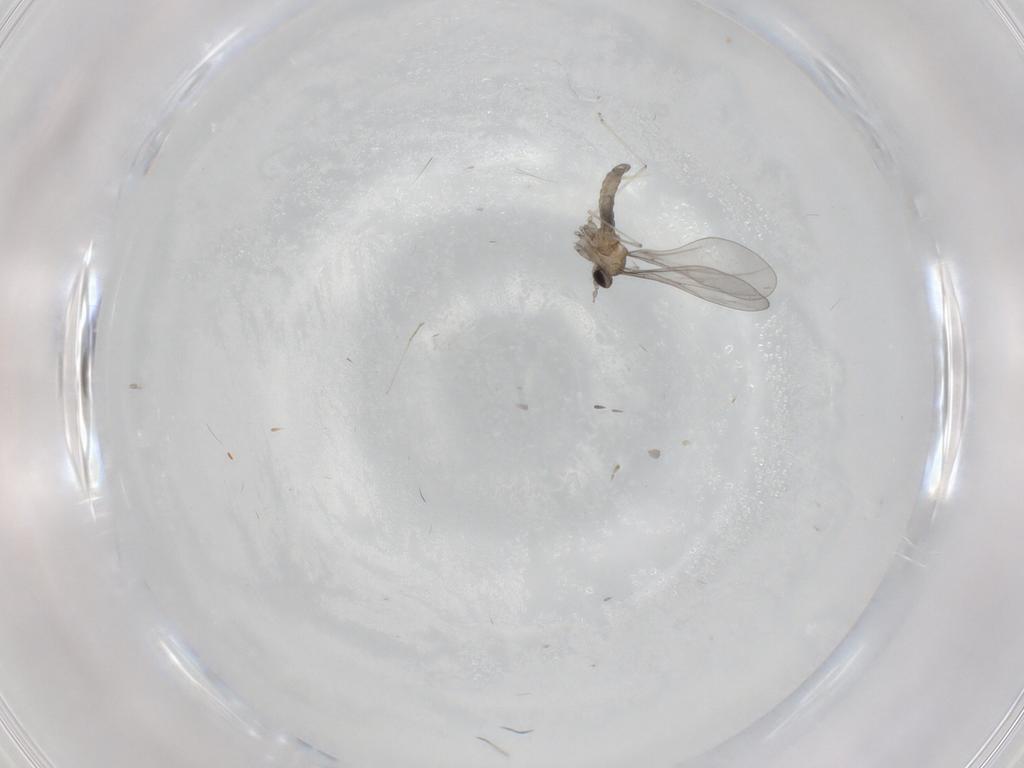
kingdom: Animalia
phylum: Arthropoda
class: Insecta
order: Diptera
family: Cecidomyiidae
